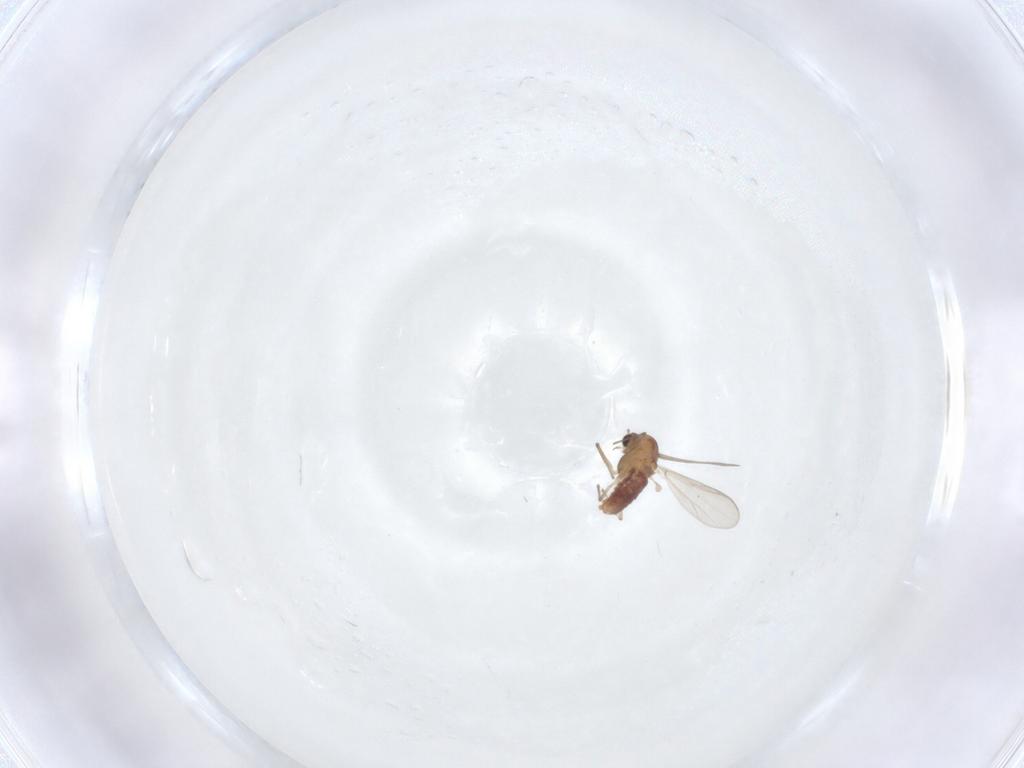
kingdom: Animalia
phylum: Arthropoda
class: Insecta
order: Diptera
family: Chironomidae
